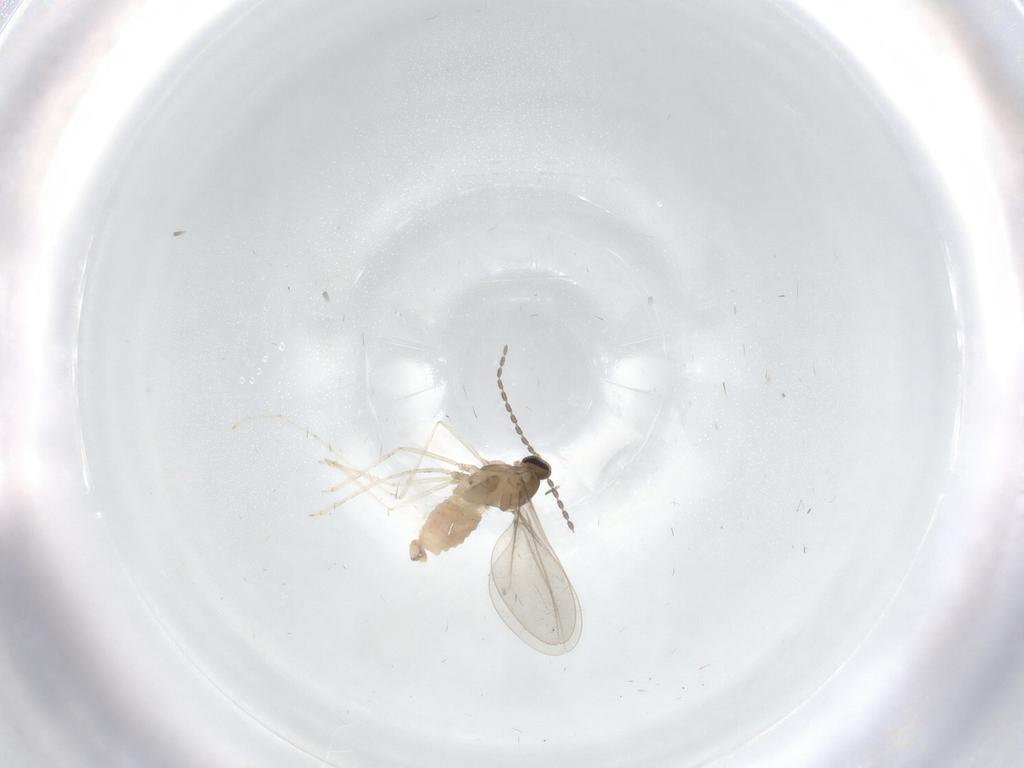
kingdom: Animalia
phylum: Arthropoda
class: Insecta
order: Diptera
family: Cecidomyiidae
